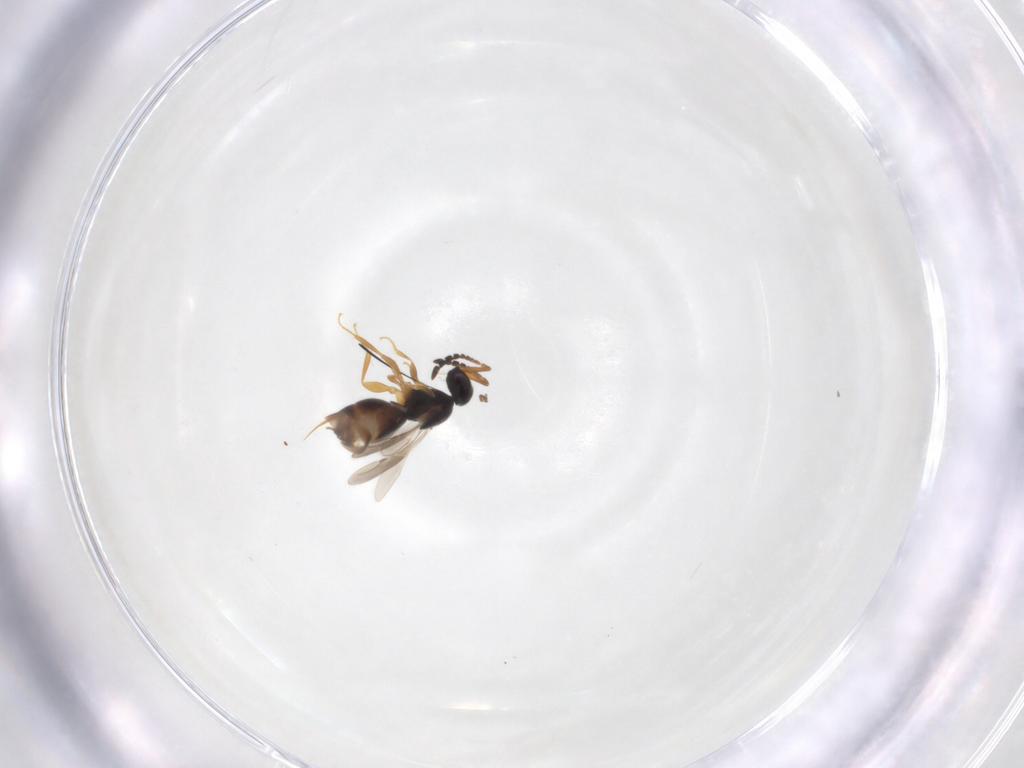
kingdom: Animalia
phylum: Arthropoda
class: Insecta
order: Diptera
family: Cecidomyiidae
